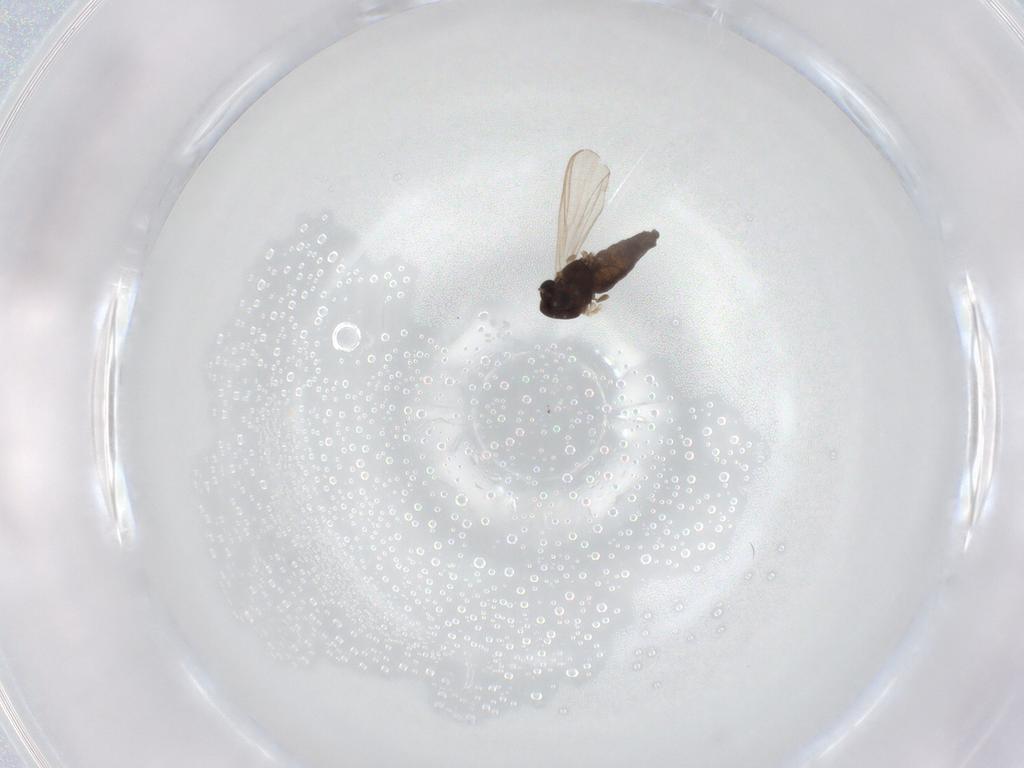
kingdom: Animalia
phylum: Arthropoda
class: Insecta
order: Diptera
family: Chironomidae
